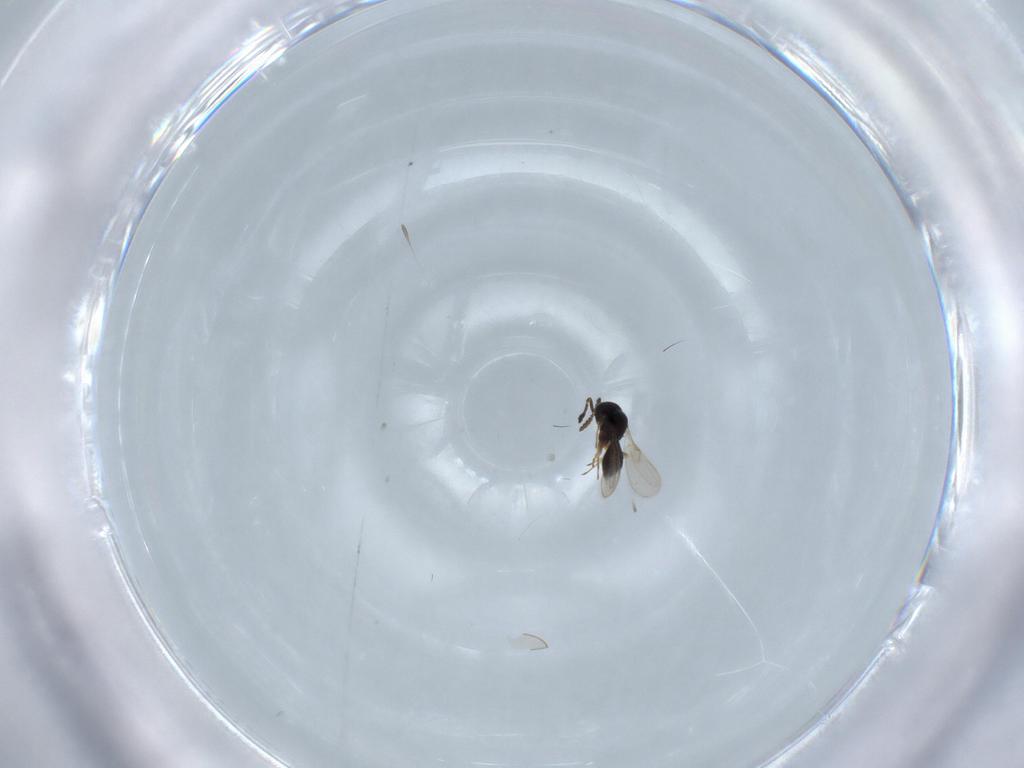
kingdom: Animalia
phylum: Arthropoda
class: Insecta
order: Hymenoptera
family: Scelionidae
